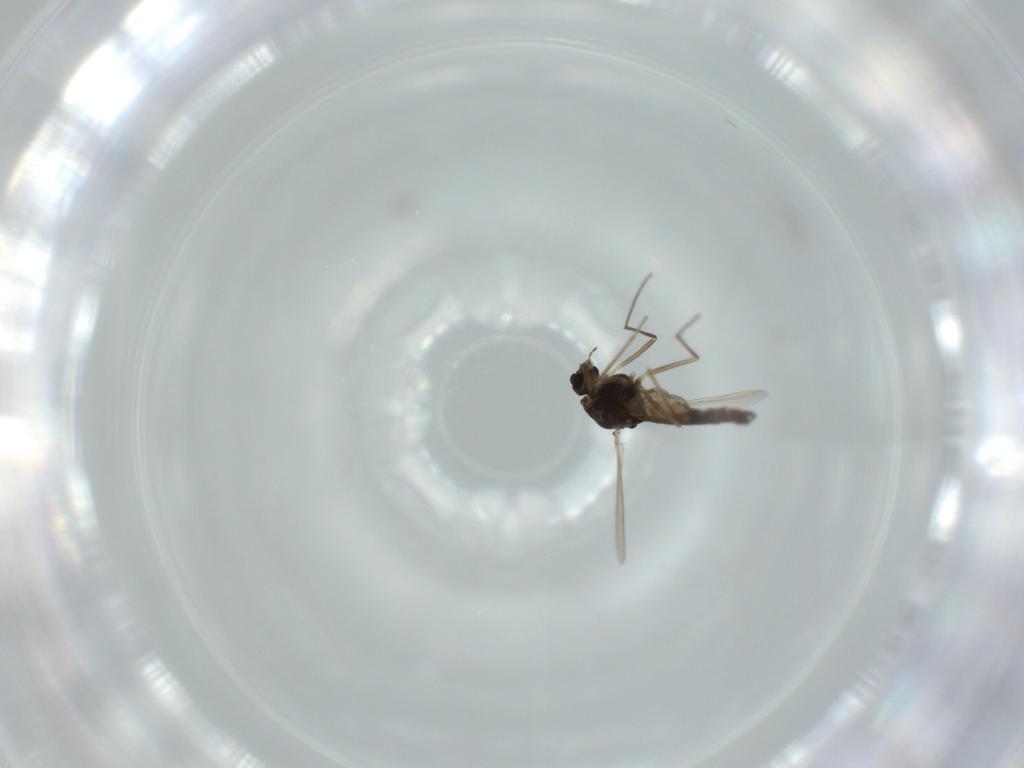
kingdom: Animalia
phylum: Arthropoda
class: Insecta
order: Diptera
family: Chironomidae
